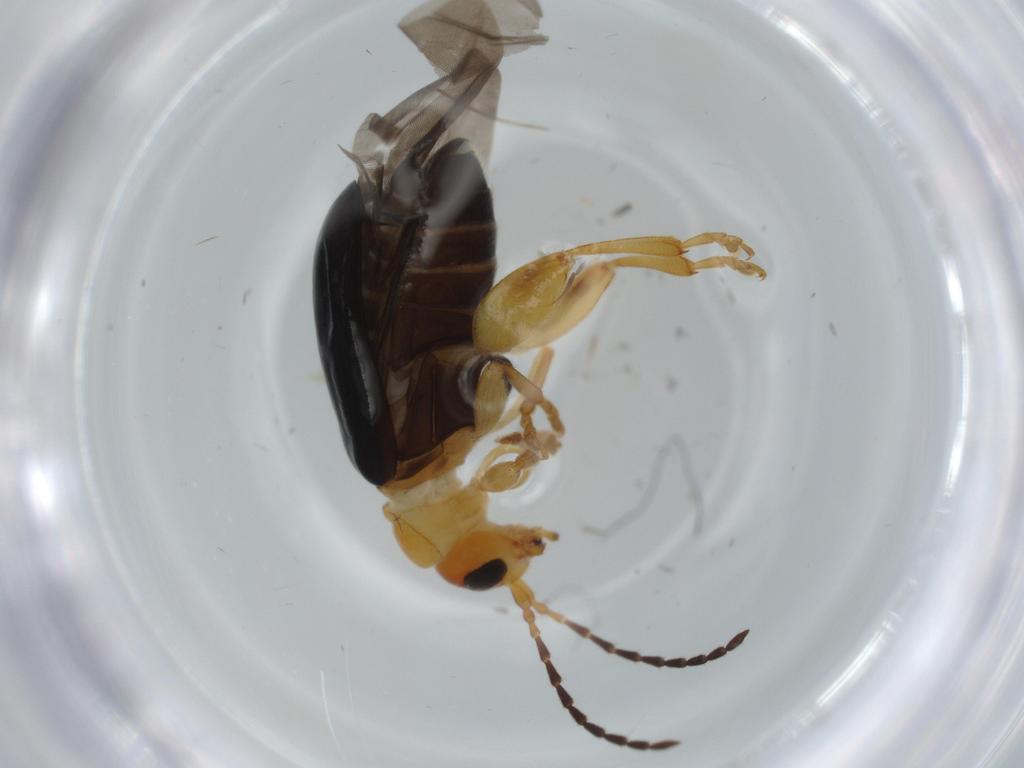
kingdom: Animalia
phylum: Arthropoda
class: Insecta
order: Coleoptera
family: Chrysomelidae
